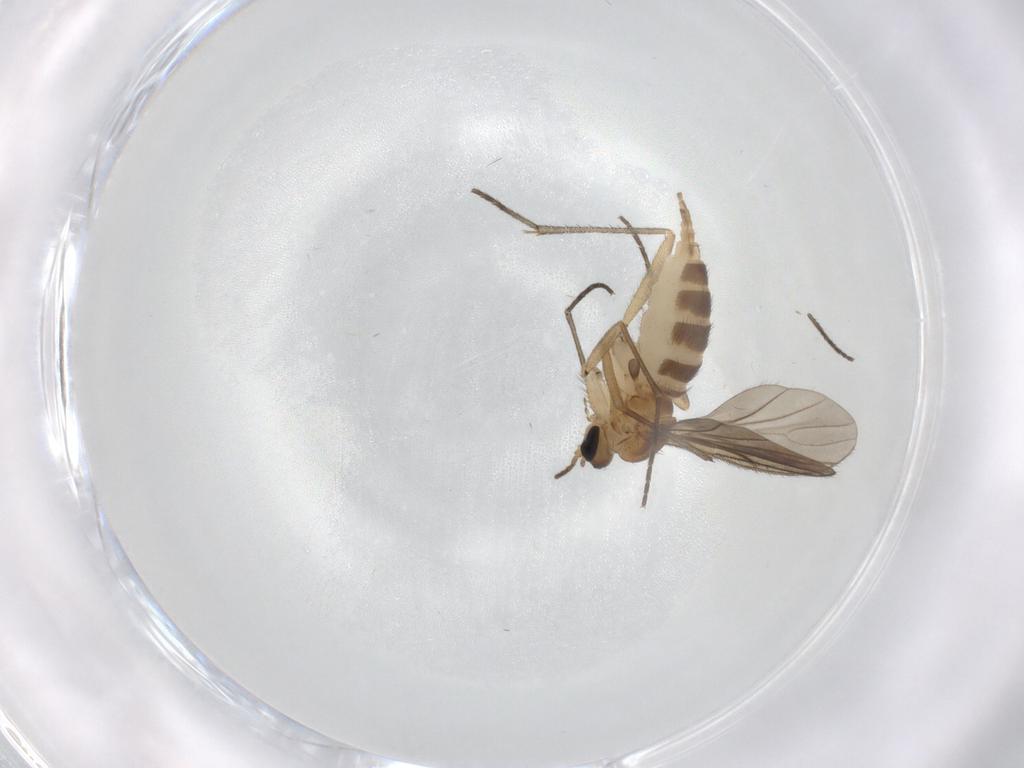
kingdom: Animalia
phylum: Arthropoda
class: Insecta
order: Diptera
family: Sciaridae
